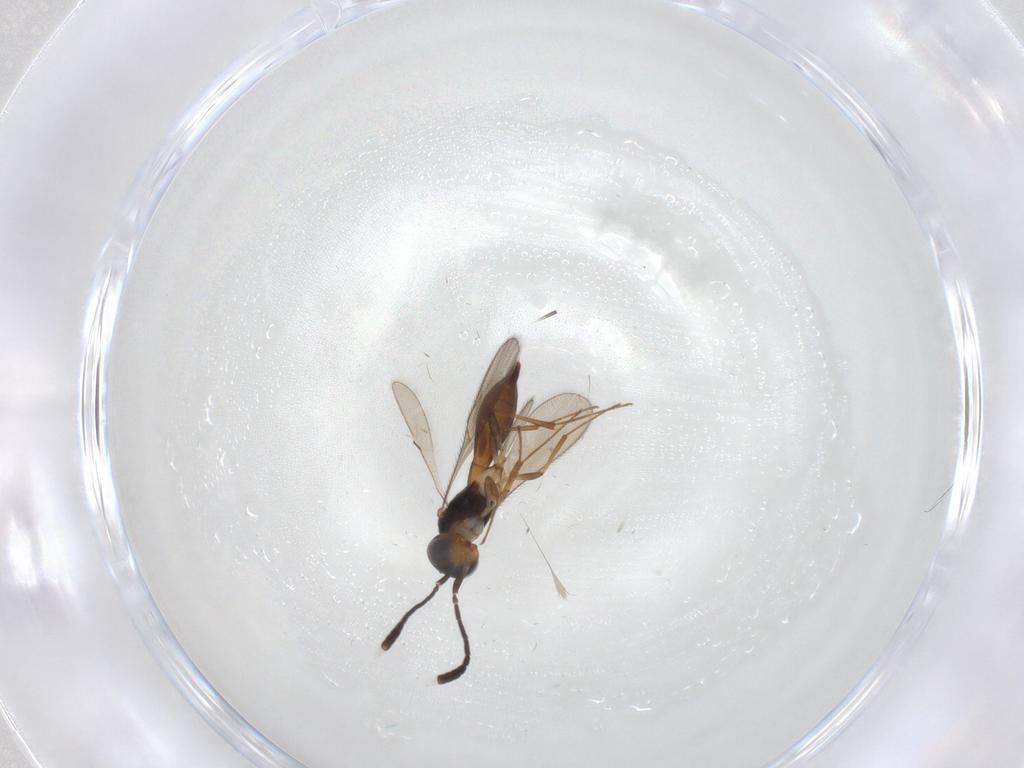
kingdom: Animalia
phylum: Arthropoda
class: Insecta
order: Hymenoptera
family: Scelionidae
